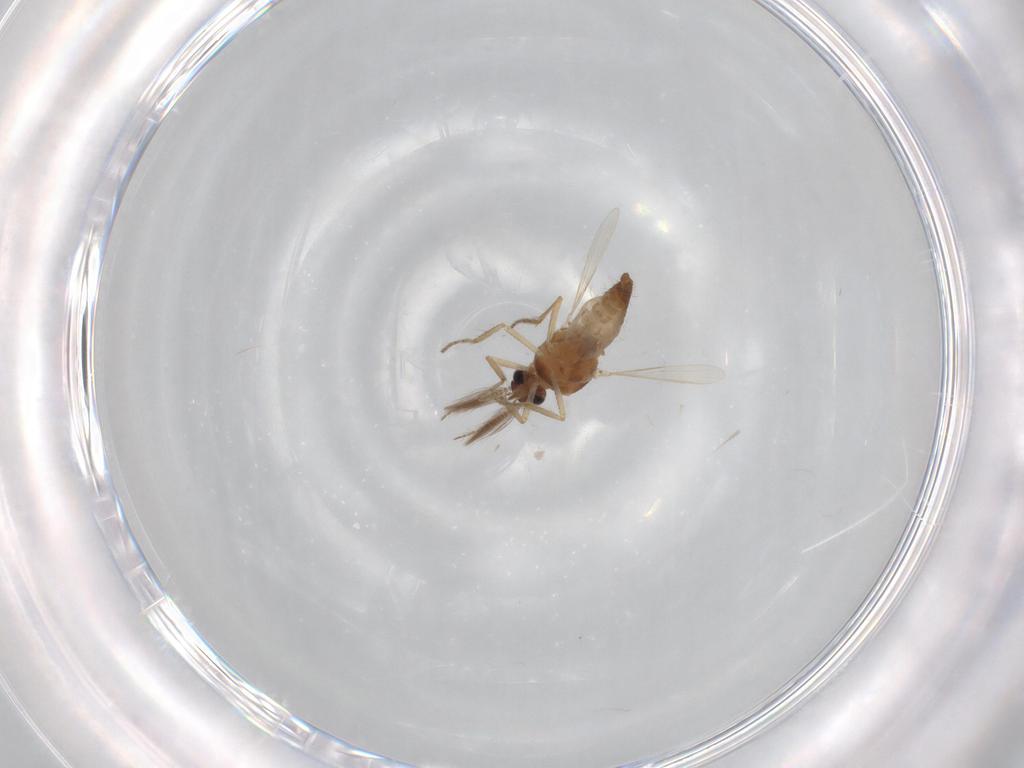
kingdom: Animalia
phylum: Arthropoda
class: Insecta
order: Diptera
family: Ceratopogonidae
